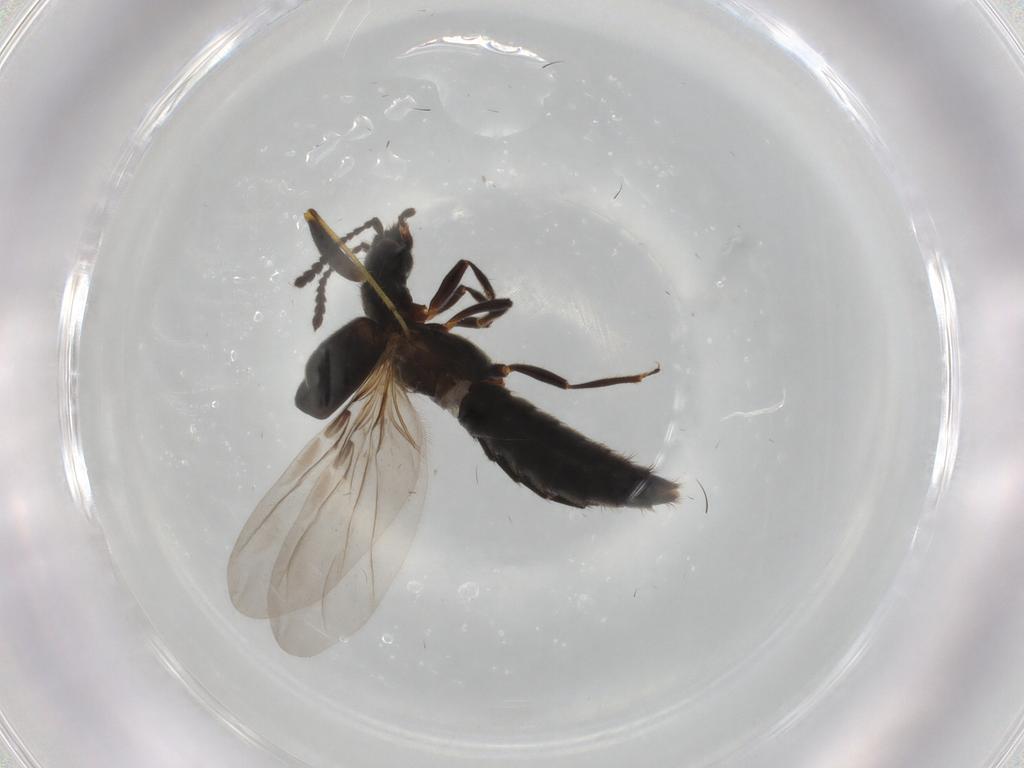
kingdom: Animalia
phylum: Arthropoda
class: Insecta
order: Coleoptera
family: Staphylinidae
